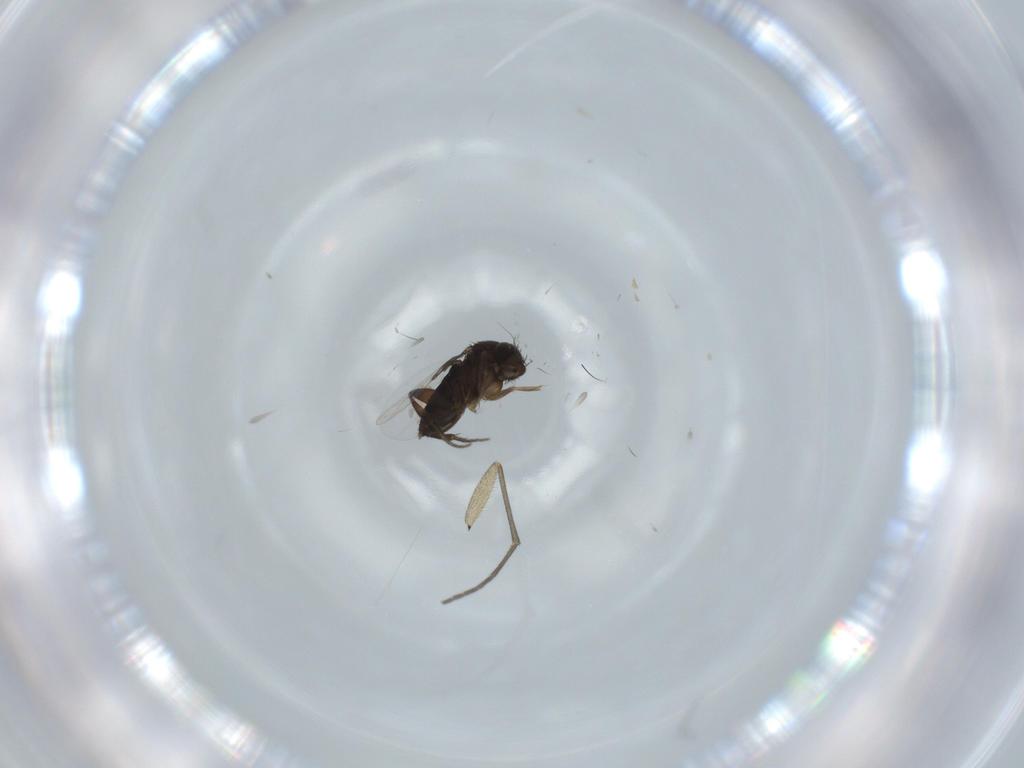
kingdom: Animalia
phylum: Arthropoda
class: Insecta
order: Diptera
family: Phoridae
